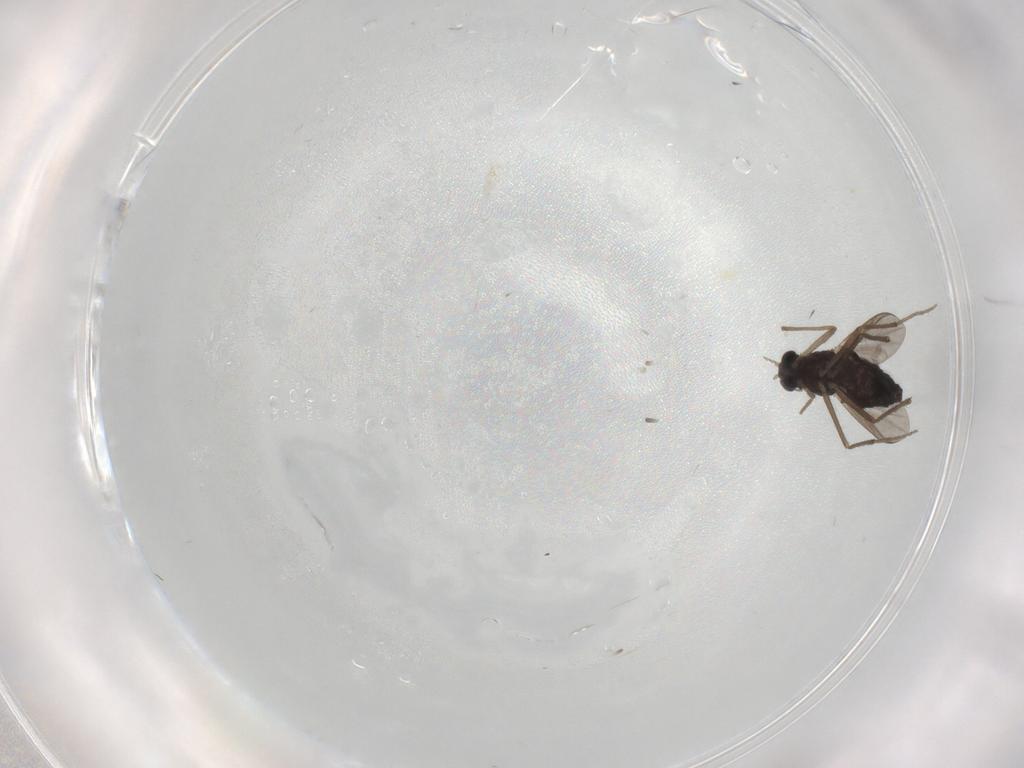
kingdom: Animalia
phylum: Arthropoda
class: Insecta
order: Diptera
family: Chironomidae
